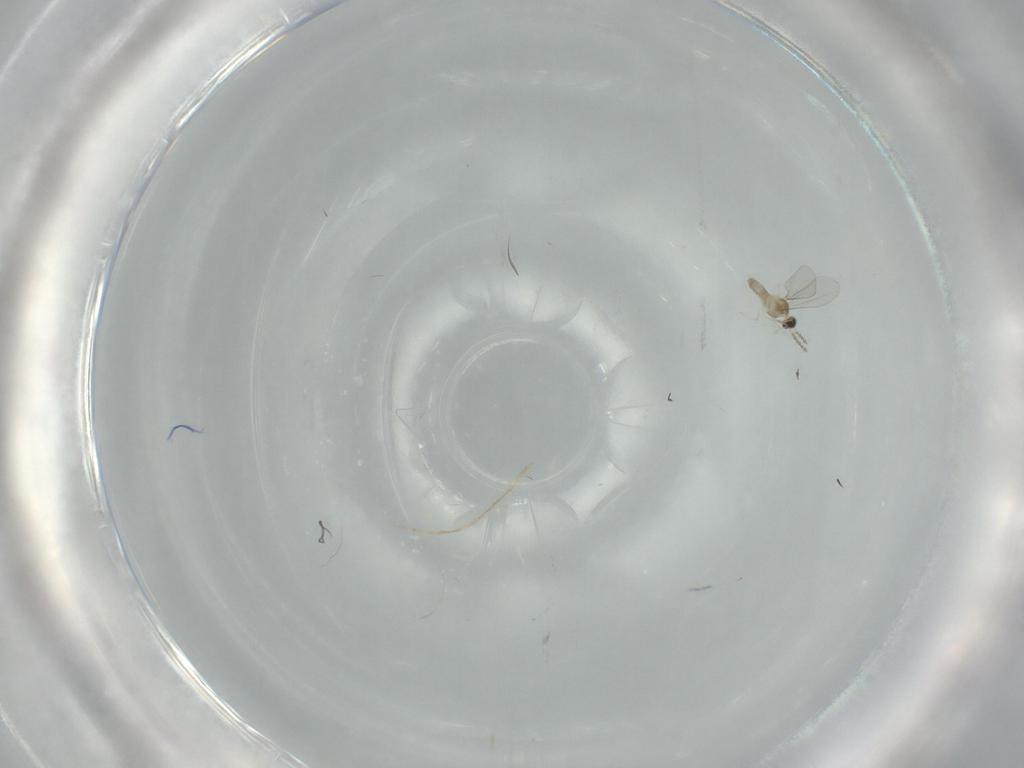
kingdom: Animalia
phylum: Arthropoda
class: Insecta
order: Diptera
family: Cecidomyiidae
